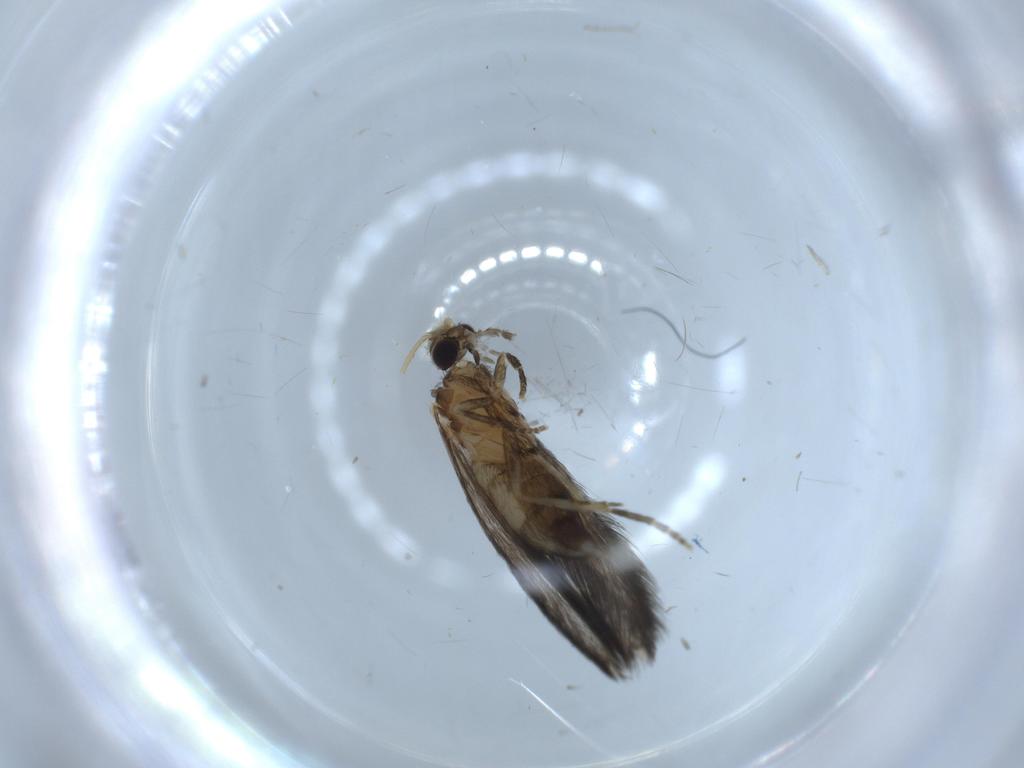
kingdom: Animalia
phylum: Arthropoda
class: Insecta
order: Trichoptera
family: Hydroptilidae
